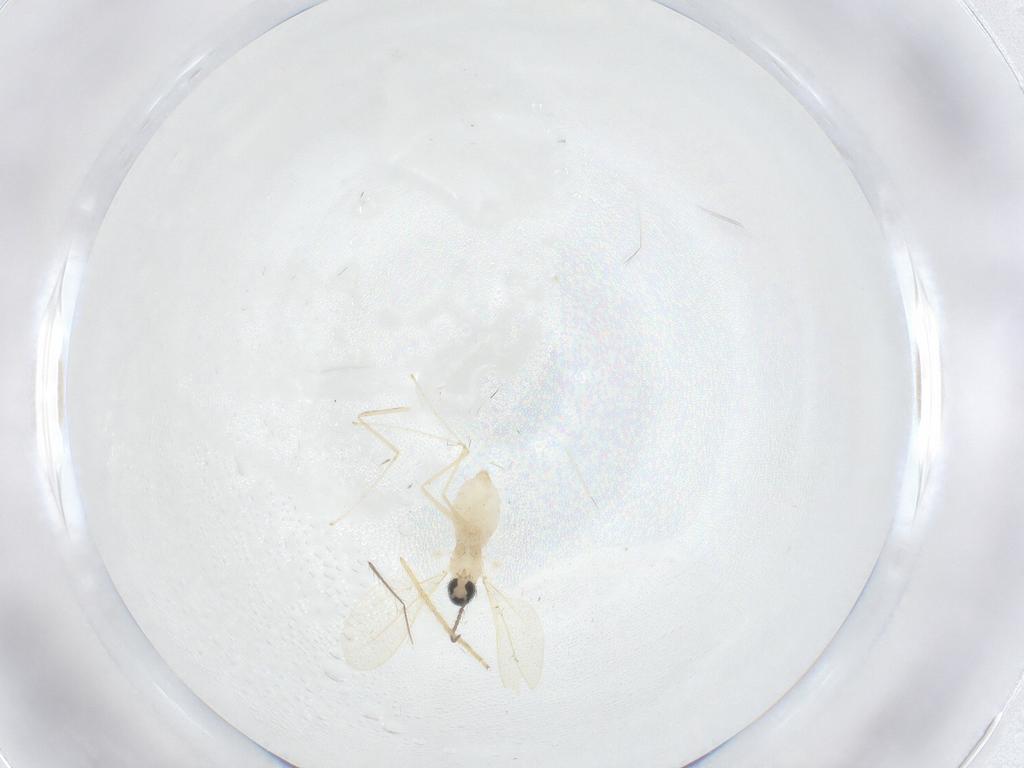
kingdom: Animalia
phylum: Arthropoda
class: Insecta
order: Diptera
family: Cecidomyiidae
